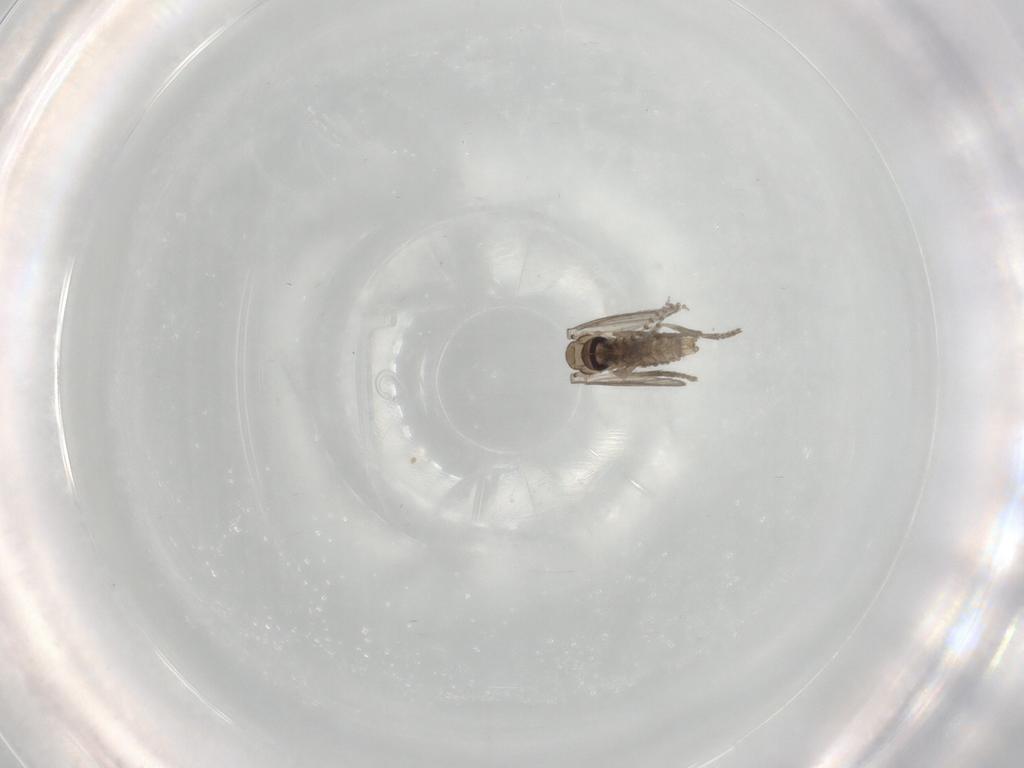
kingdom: Animalia
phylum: Arthropoda
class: Insecta
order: Diptera
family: Psychodidae
